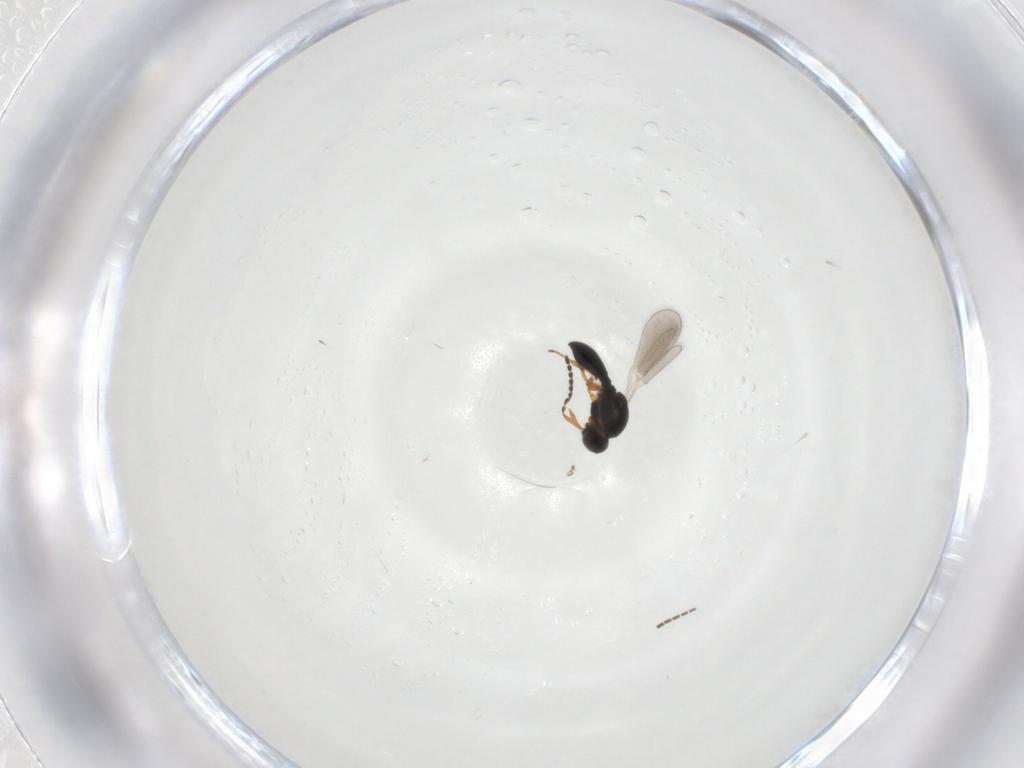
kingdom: Animalia
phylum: Arthropoda
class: Insecta
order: Diptera
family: Sciaridae
